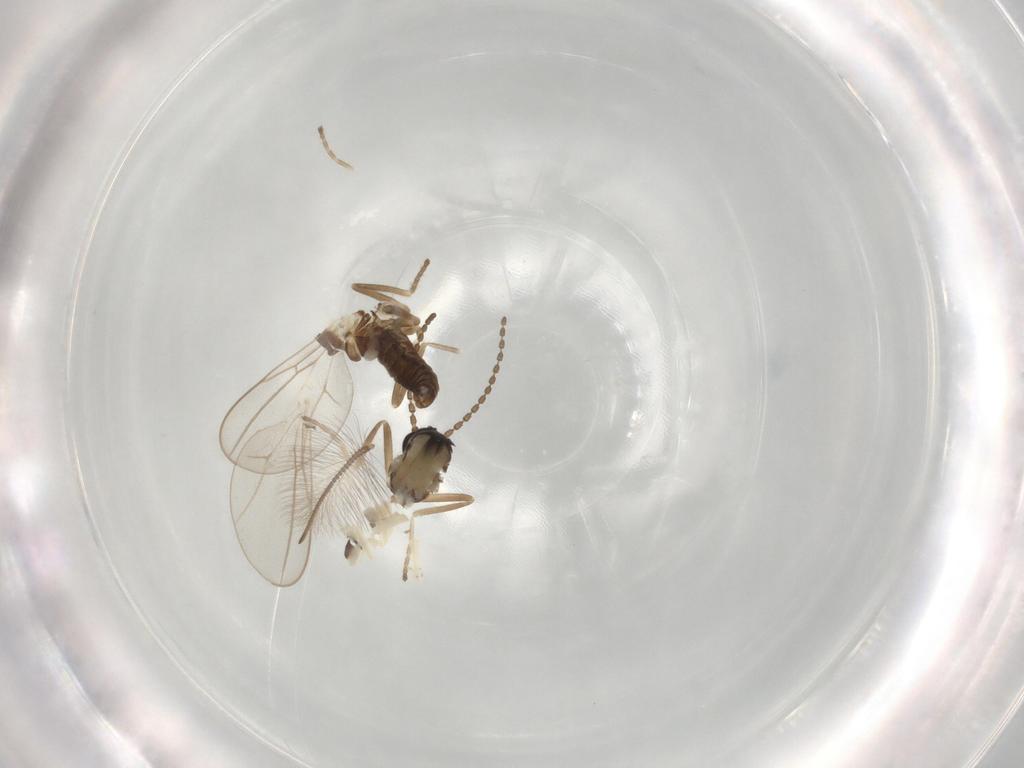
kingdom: Animalia
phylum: Arthropoda
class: Insecta
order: Diptera
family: Cecidomyiidae
